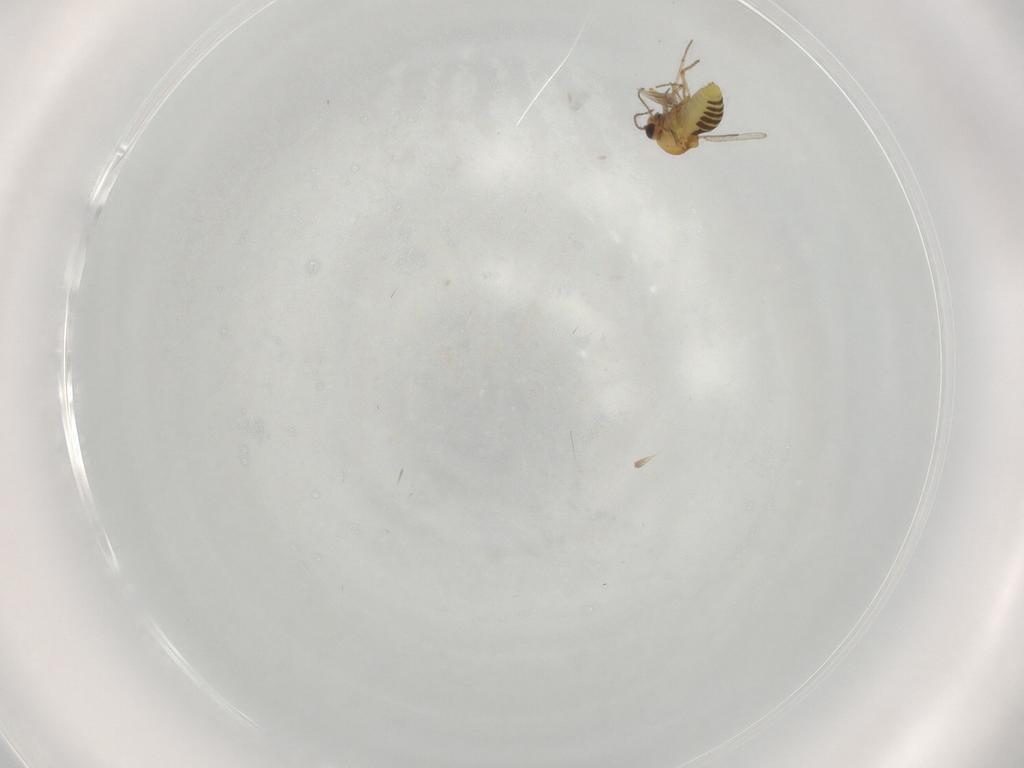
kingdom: Animalia
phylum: Arthropoda
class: Insecta
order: Diptera
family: Ceratopogonidae
